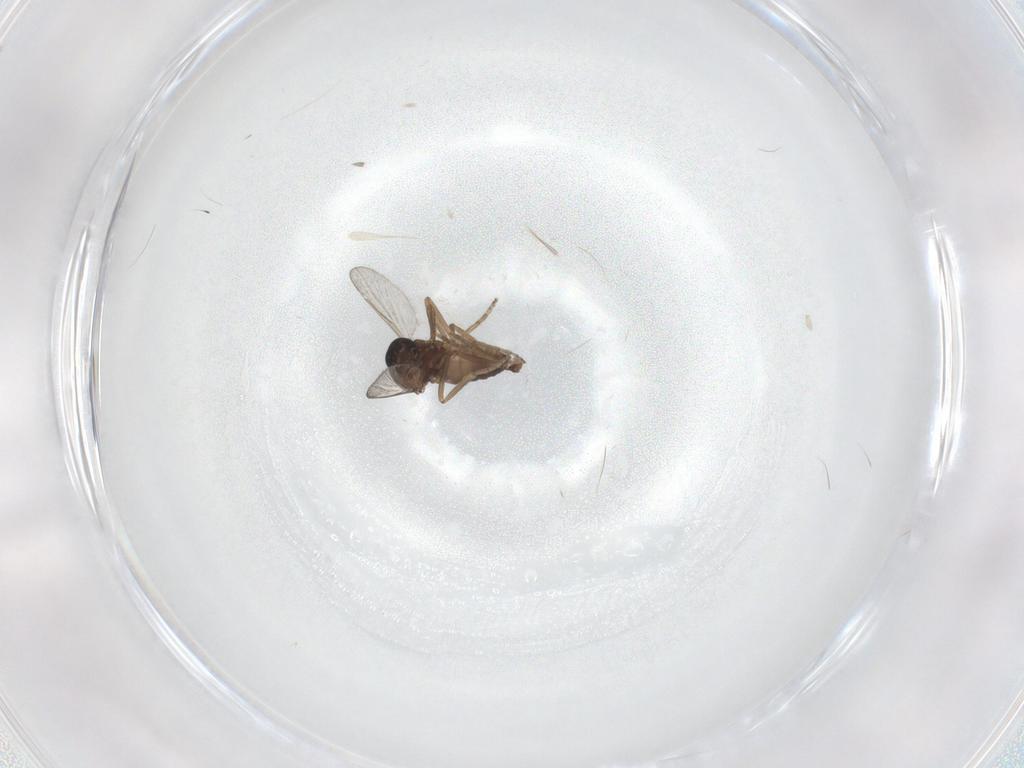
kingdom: Animalia
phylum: Arthropoda
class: Insecta
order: Diptera
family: Ceratopogonidae
